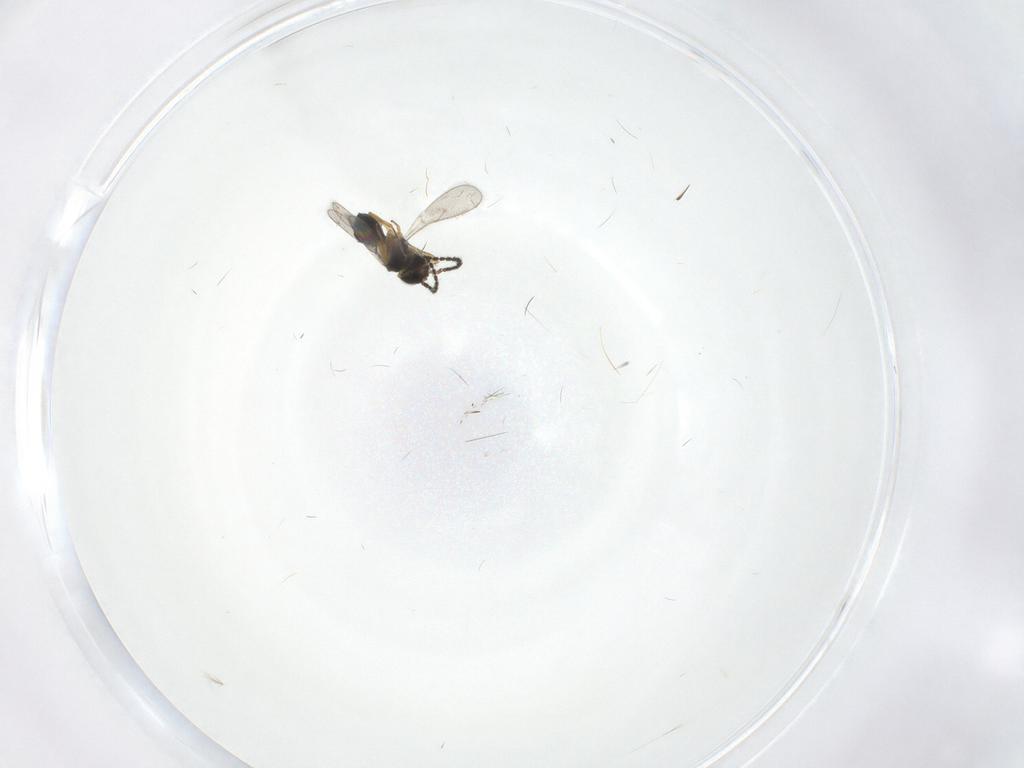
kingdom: Animalia
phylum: Arthropoda
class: Insecta
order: Hymenoptera
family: Scelionidae
